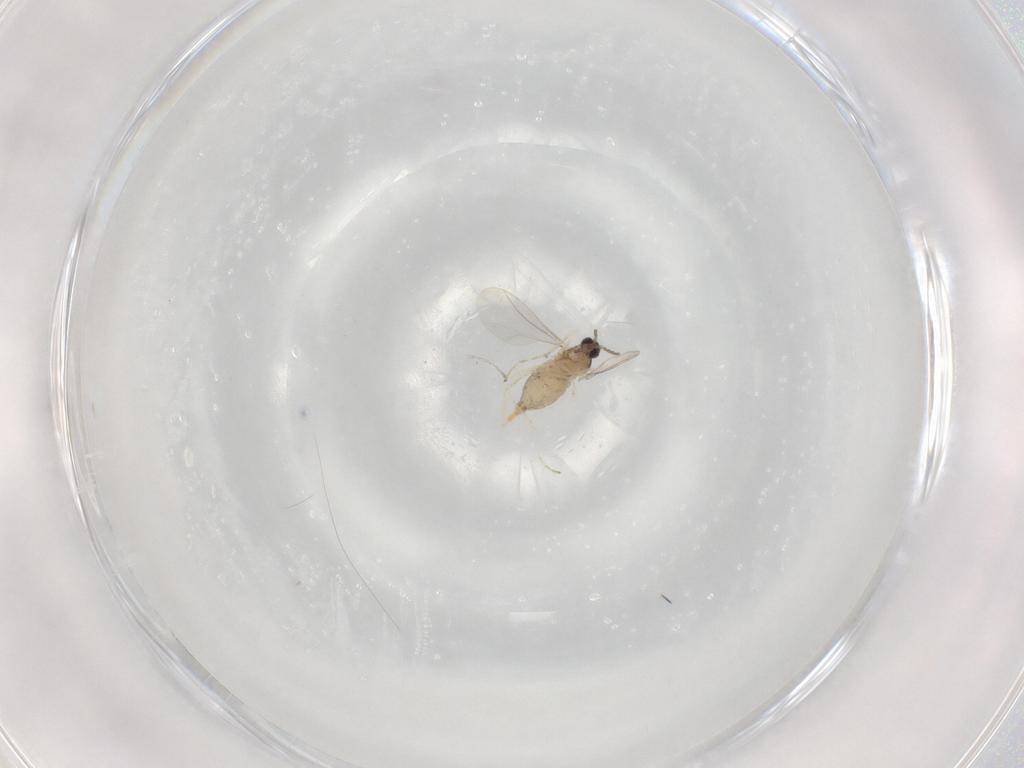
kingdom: Animalia
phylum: Arthropoda
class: Insecta
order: Diptera
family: Cecidomyiidae
